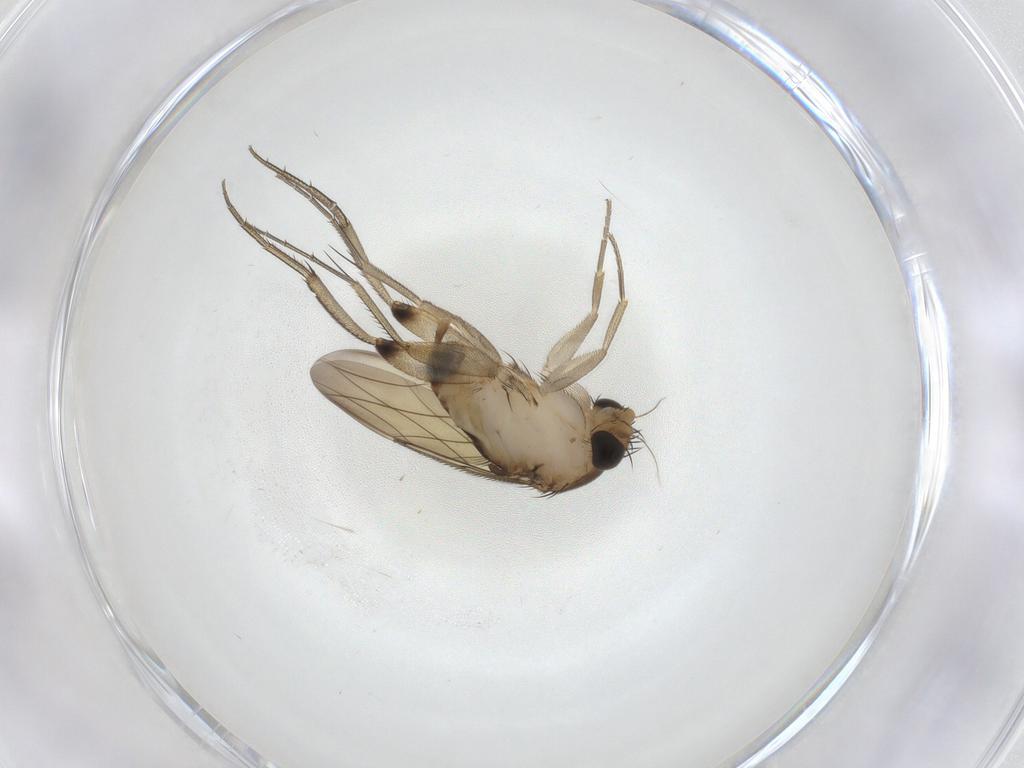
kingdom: Animalia
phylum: Arthropoda
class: Insecta
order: Diptera
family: Phoridae
